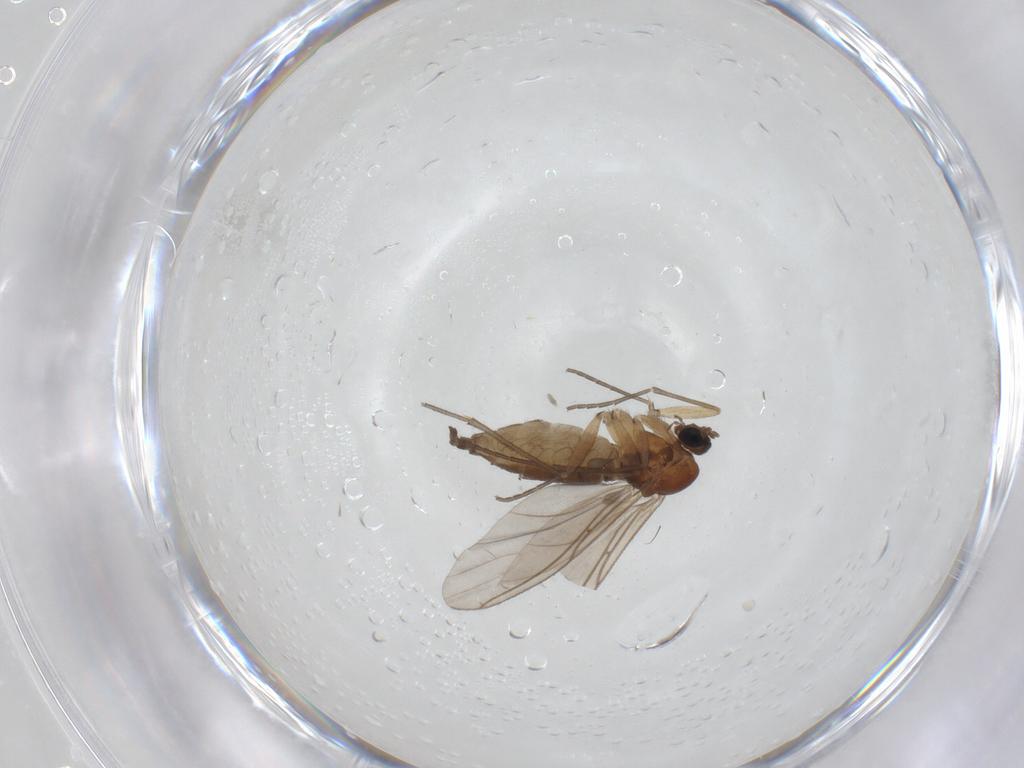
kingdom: Animalia
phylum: Arthropoda
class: Insecta
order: Diptera
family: Sciaridae
